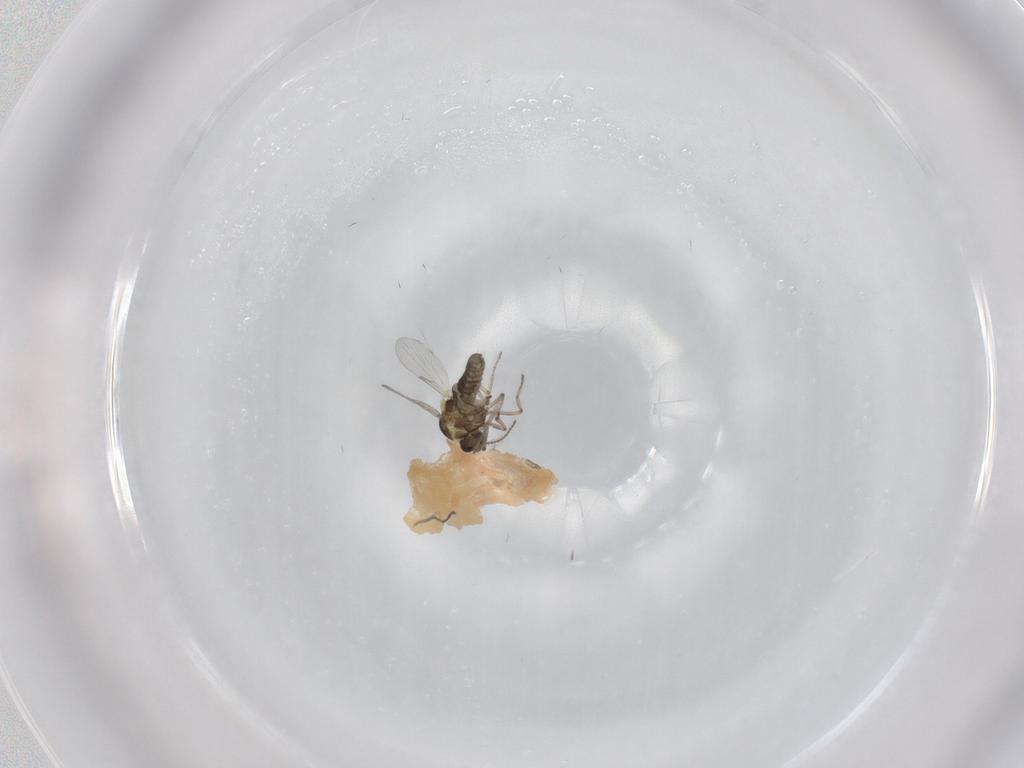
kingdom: Animalia
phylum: Arthropoda
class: Insecta
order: Diptera
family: Ceratopogonidae
